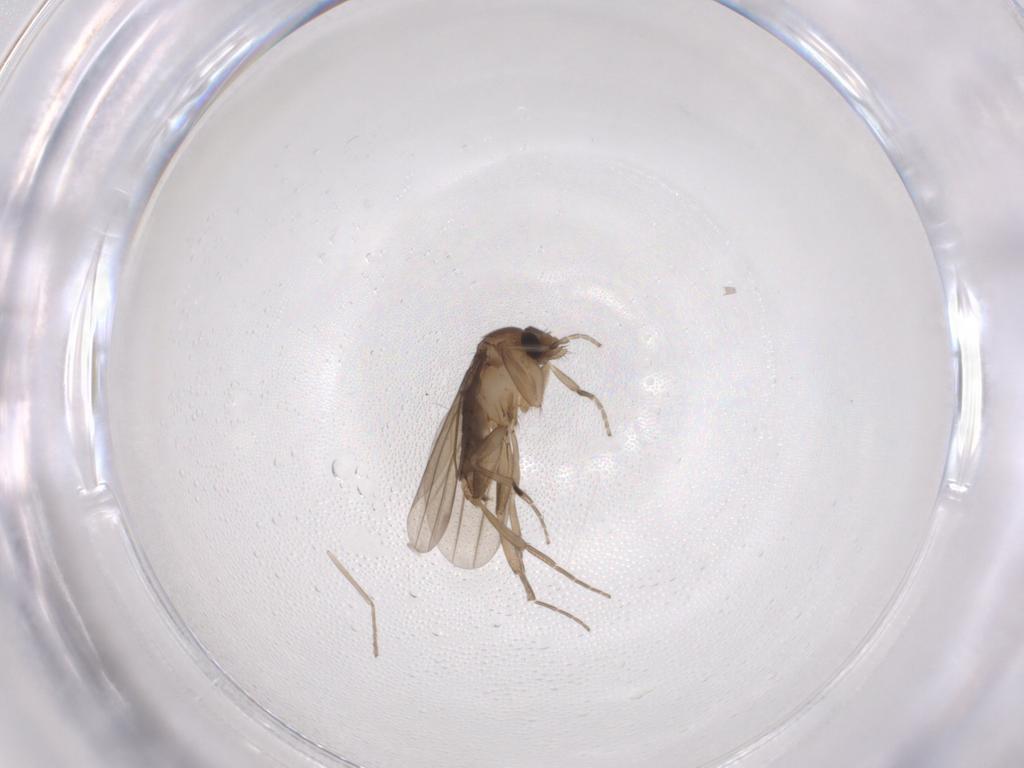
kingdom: Animalia
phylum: Arthropoda
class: Insecta
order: Diptera
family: Chironomidae
